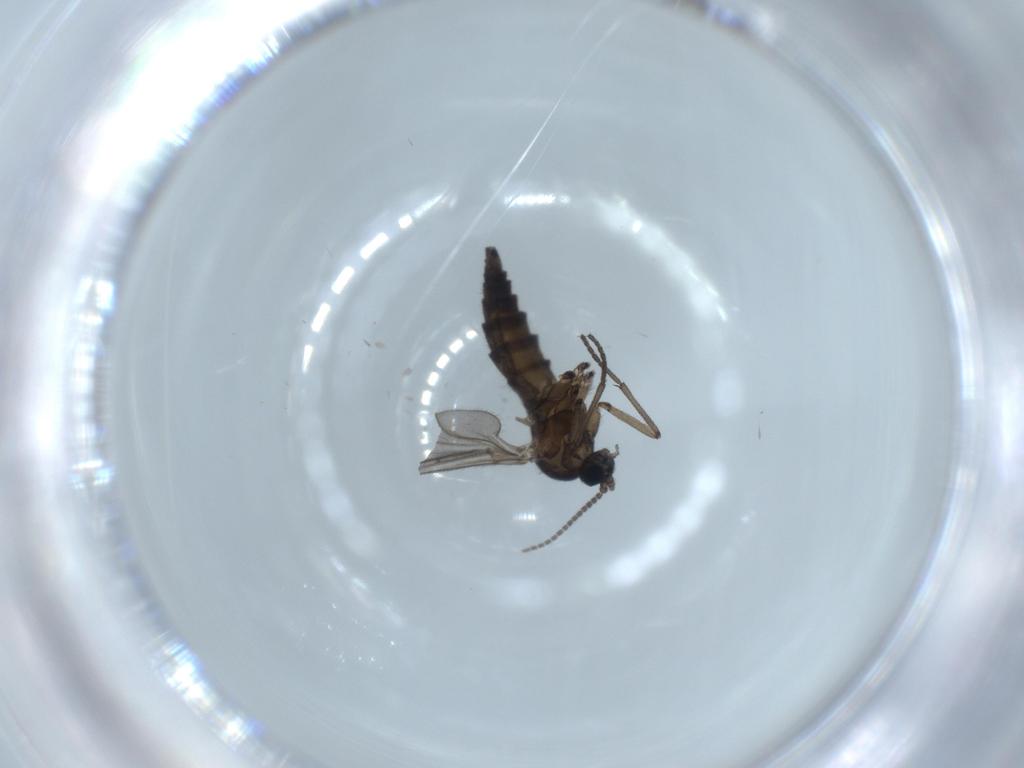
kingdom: Animalia
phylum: Arthropoda
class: Insecta
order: Diptera
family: Sciaridae
